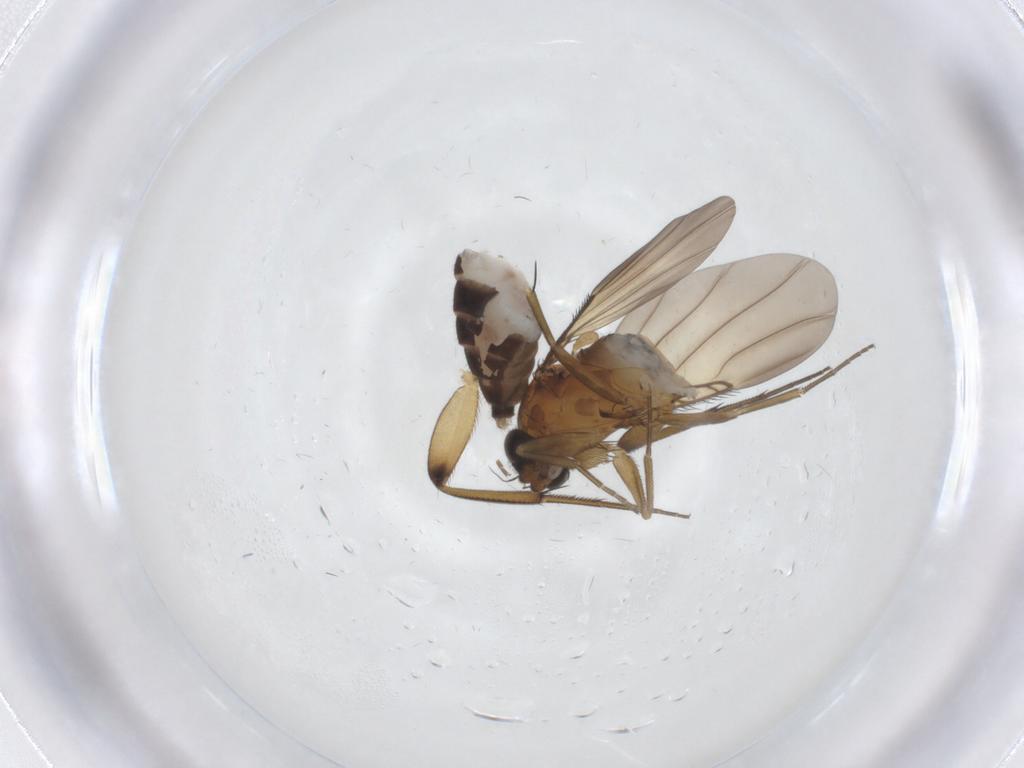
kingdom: Animalia
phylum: Arthropoda
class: Insecta
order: Diptera
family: Phoridae
